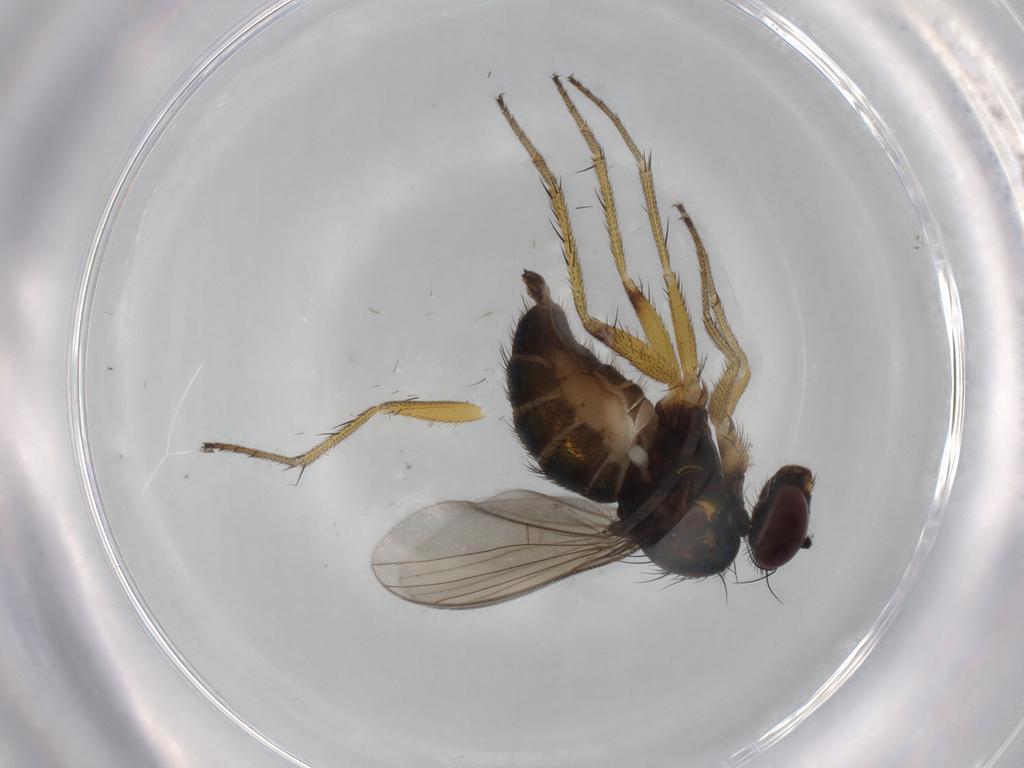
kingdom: Animalia
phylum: Arthropoda
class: Insecta
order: Diptera
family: Dolichopodidae
